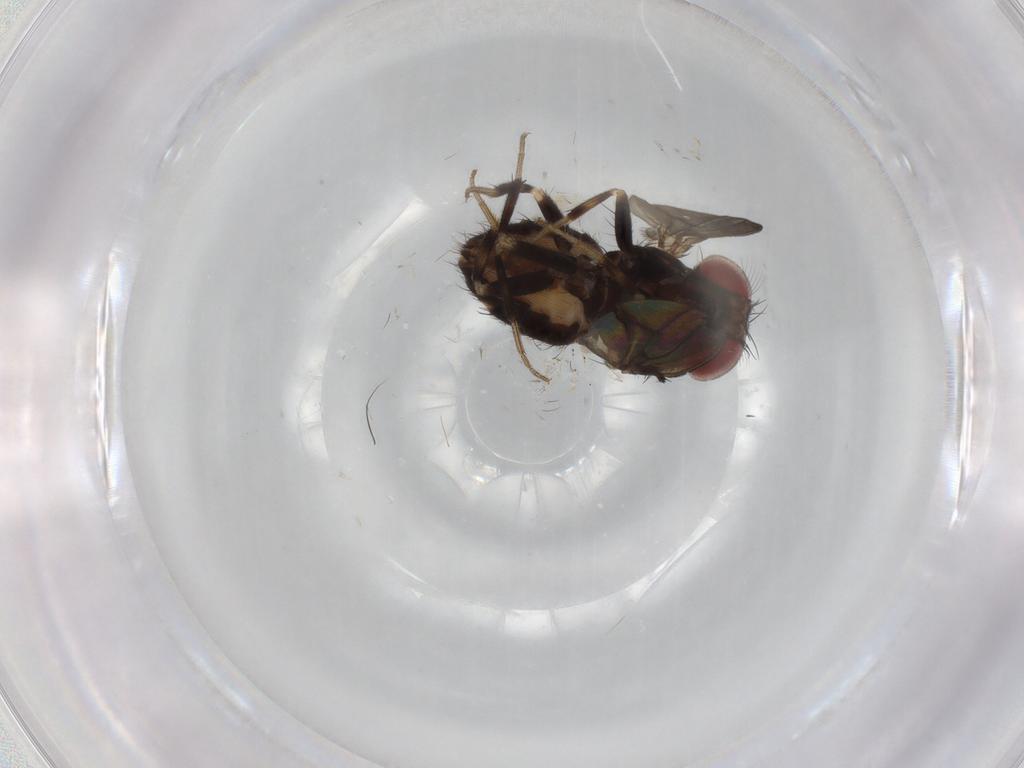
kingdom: Animalia
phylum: Arthropoda
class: Insecta
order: Diptera
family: Drosophilidae
